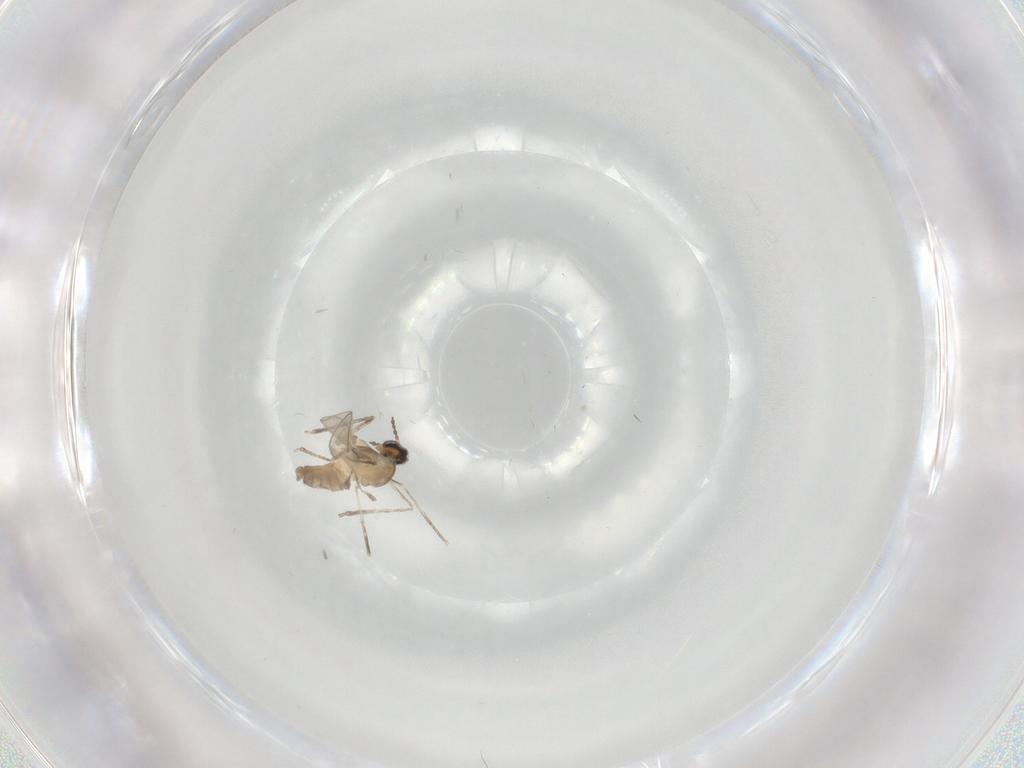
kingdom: Animalia
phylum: Arthropoda
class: Insecta
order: Diptera
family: Cecidomyiidae
